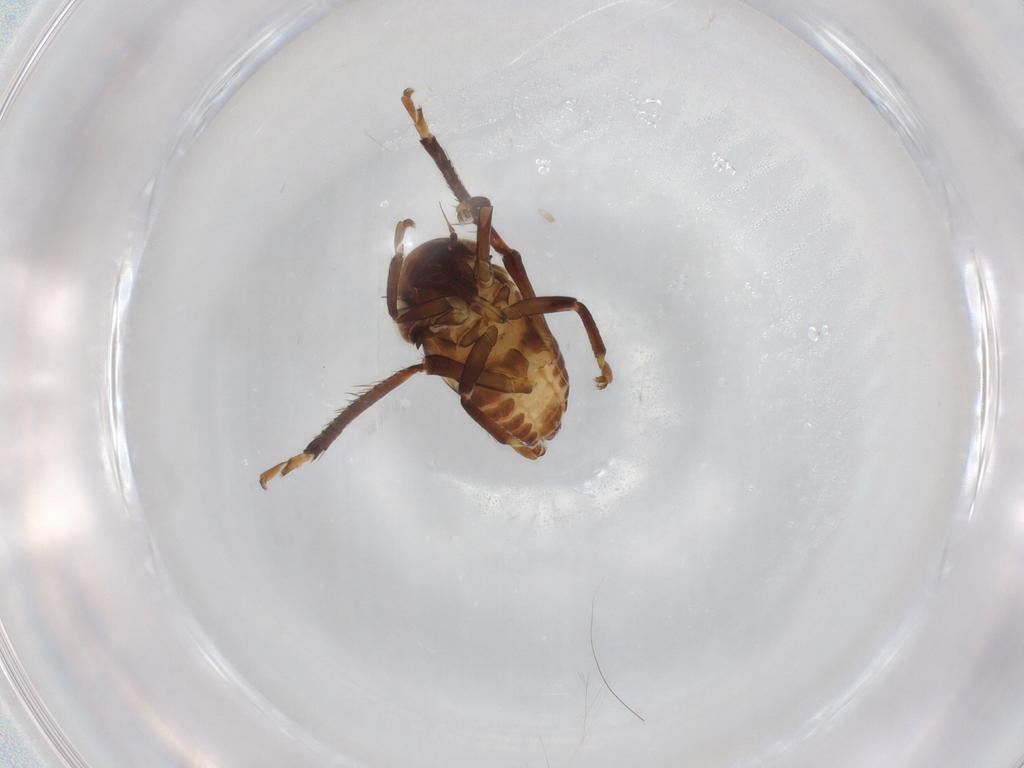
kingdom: Animalia
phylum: Arthropoda
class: Insecta
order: Hemiptera
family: Cicadellidae
